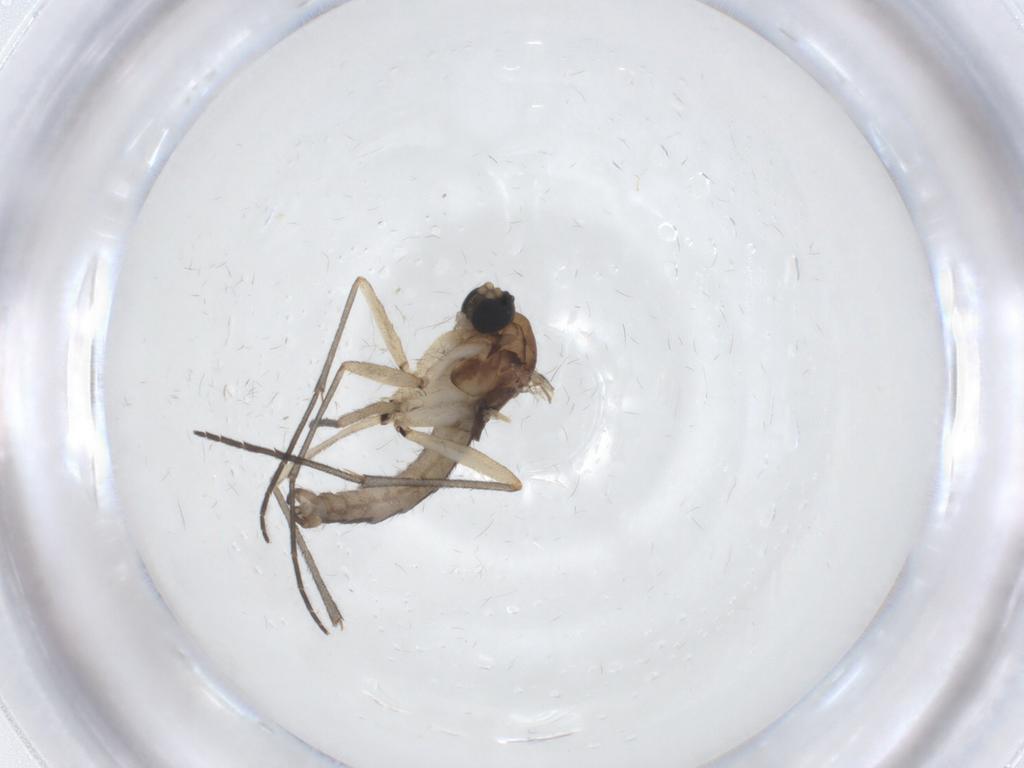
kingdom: Animalia
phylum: Arthropoda
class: Insecta
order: Diptera
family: Sciaridae
